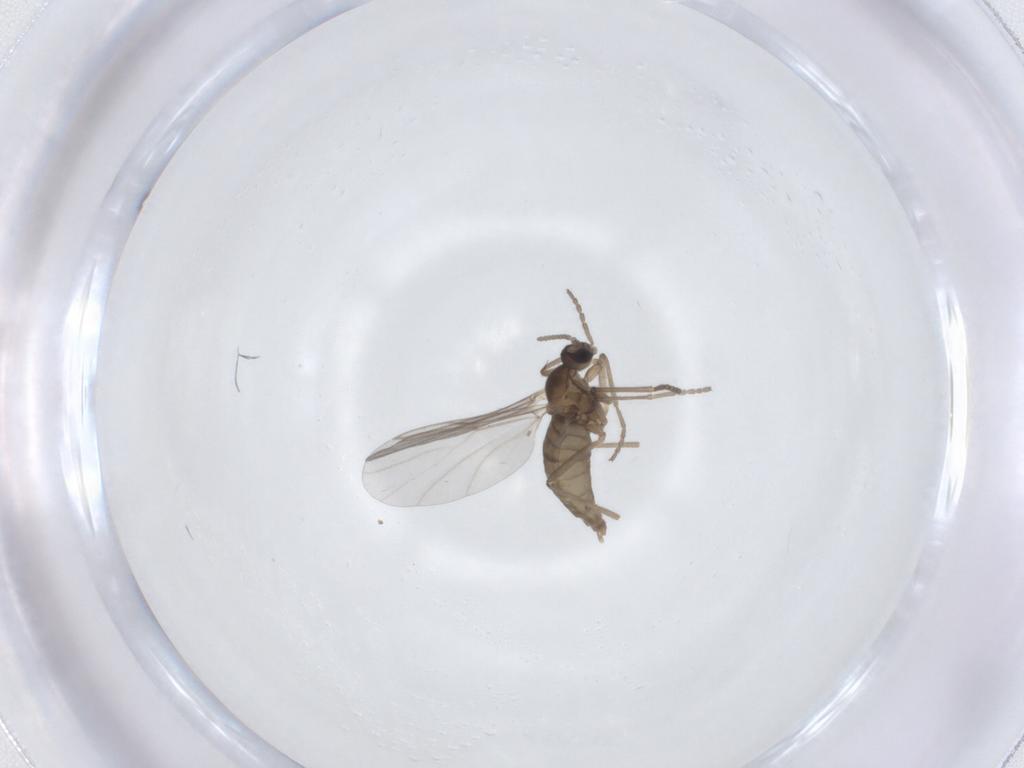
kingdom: Animalia
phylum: Arthropoda
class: Insecta
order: Diptera
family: Cecidomyiidae
